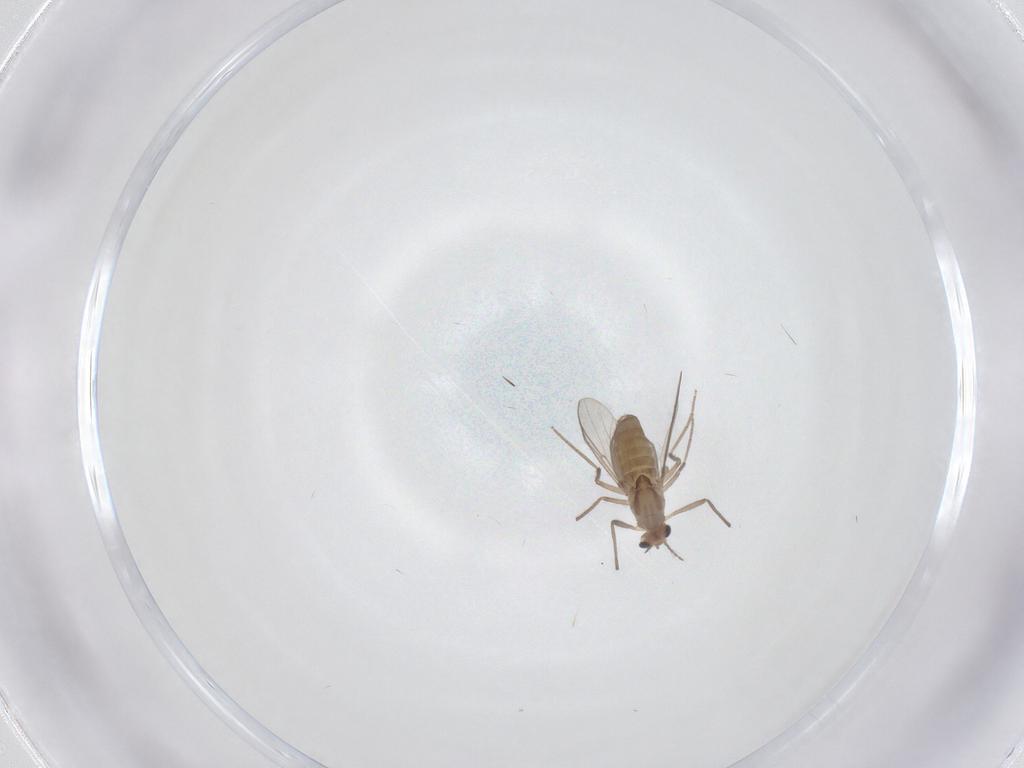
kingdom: Animalia
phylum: Arthropoda
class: Insecta
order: Diptera
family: Chironomidae
